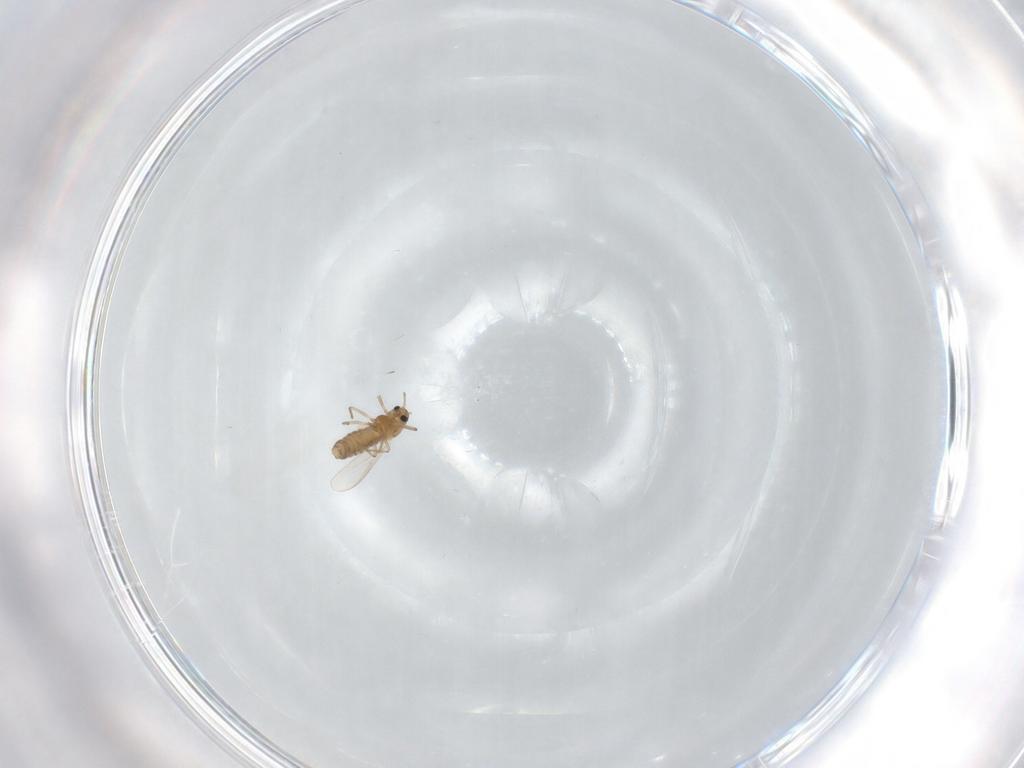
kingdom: Animalia
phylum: Arthropoda
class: Insecta
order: Diptera
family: Chironomidae
